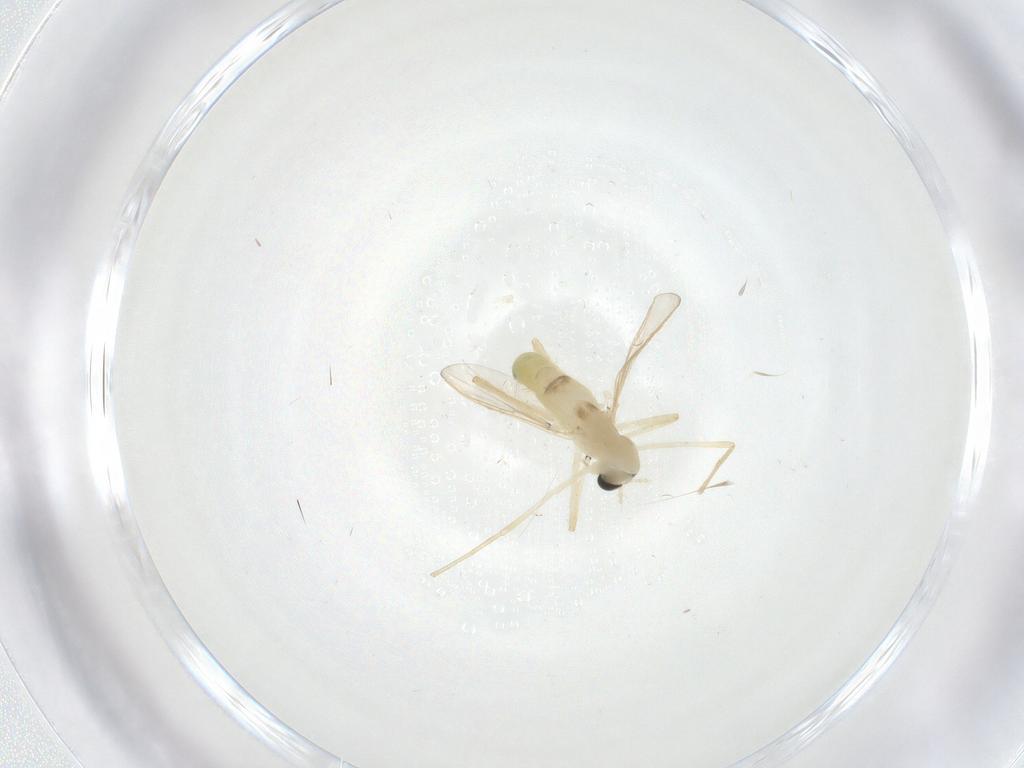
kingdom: Animalia
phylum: Arthropoda
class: Insecta
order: Diptera
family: Chironomidae
